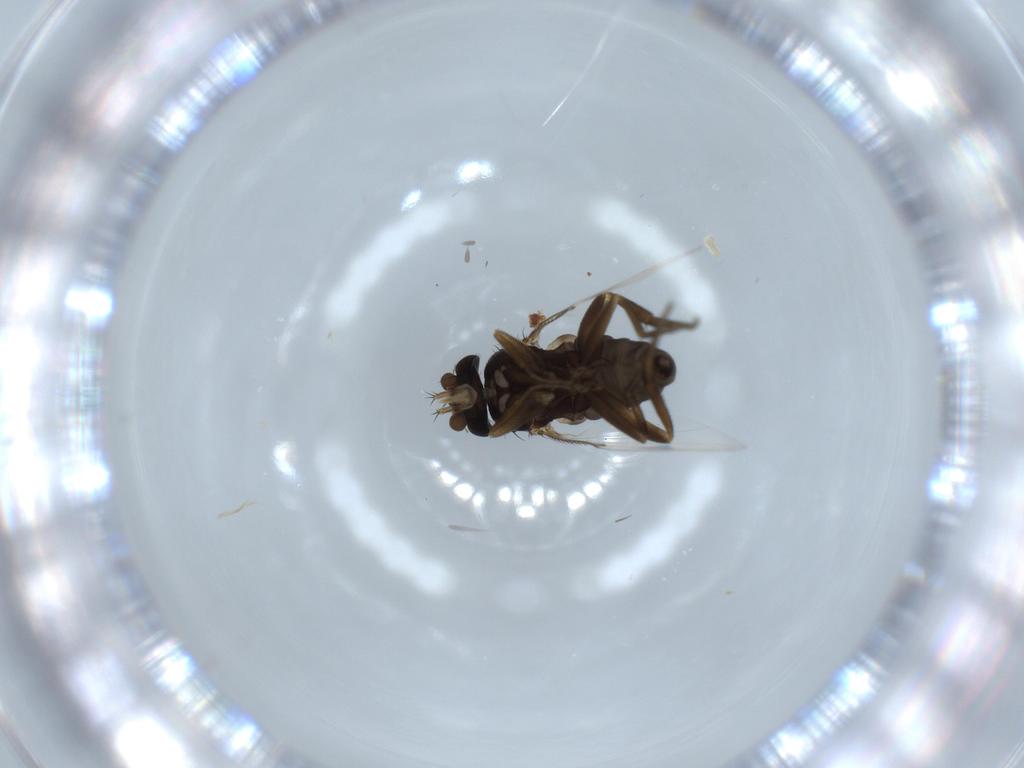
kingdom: Animalia
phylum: Arthropoda
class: Insecta
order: Diptera
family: Phoridae
